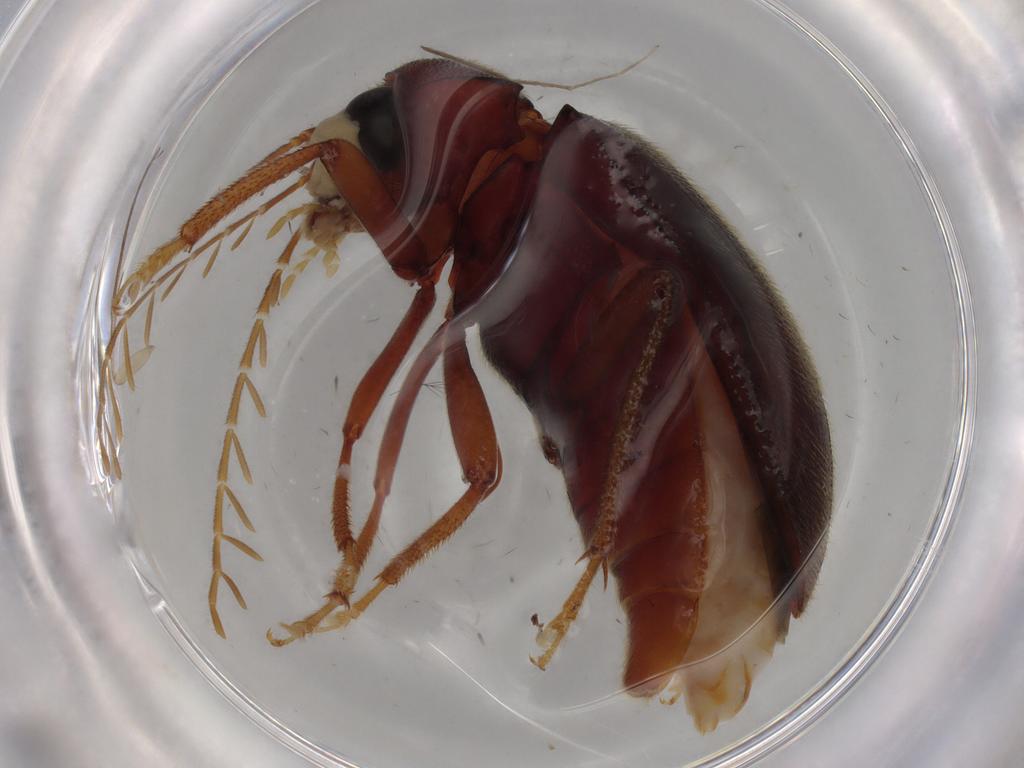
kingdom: Animalia
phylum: Arthropoda
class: Insecta
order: Coleoptera
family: Ptilodactylidae
